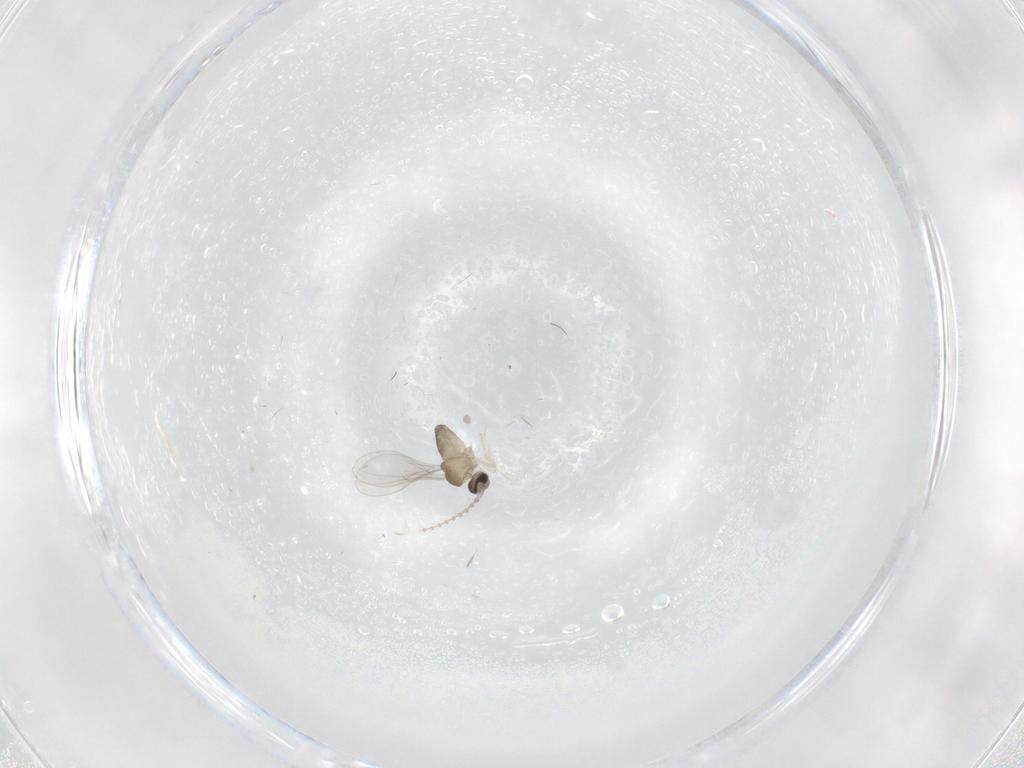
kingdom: Animalia
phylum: Arthropoda
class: Insecta
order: Diptera
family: Cecidomyiidae
